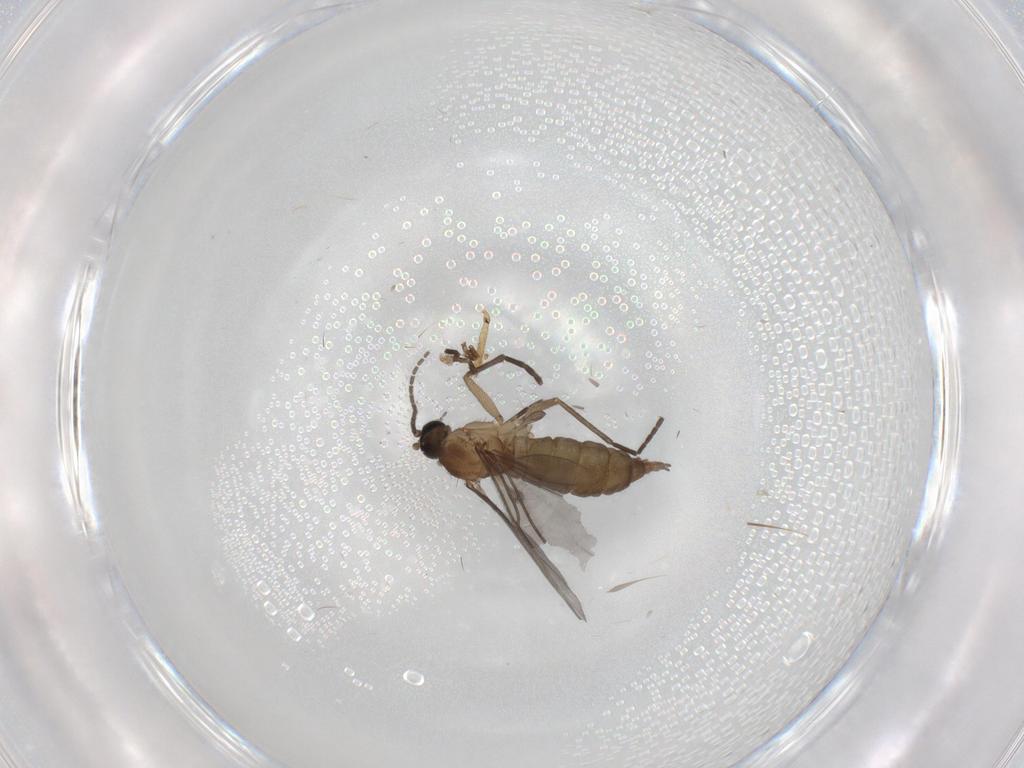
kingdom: Animalia
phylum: Arthropoda
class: Insecta
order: Diptera
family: Sciaridae
